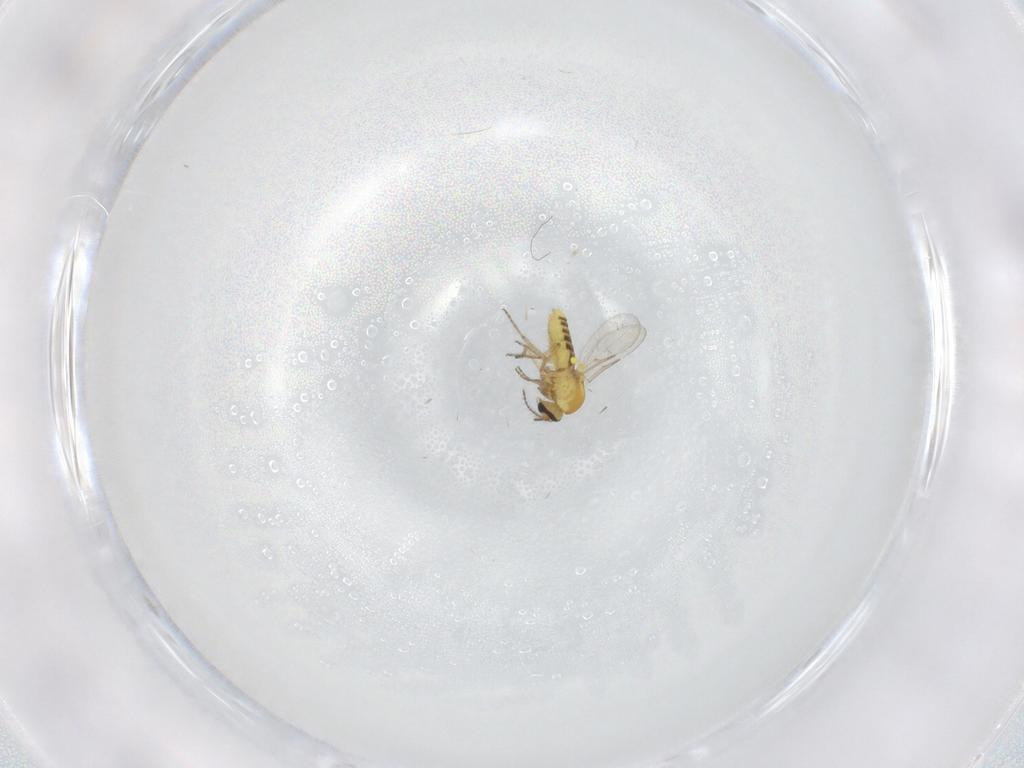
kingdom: Animalia
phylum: Arthropoda
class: Insecta
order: Diptera
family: Ceratopogonidae
